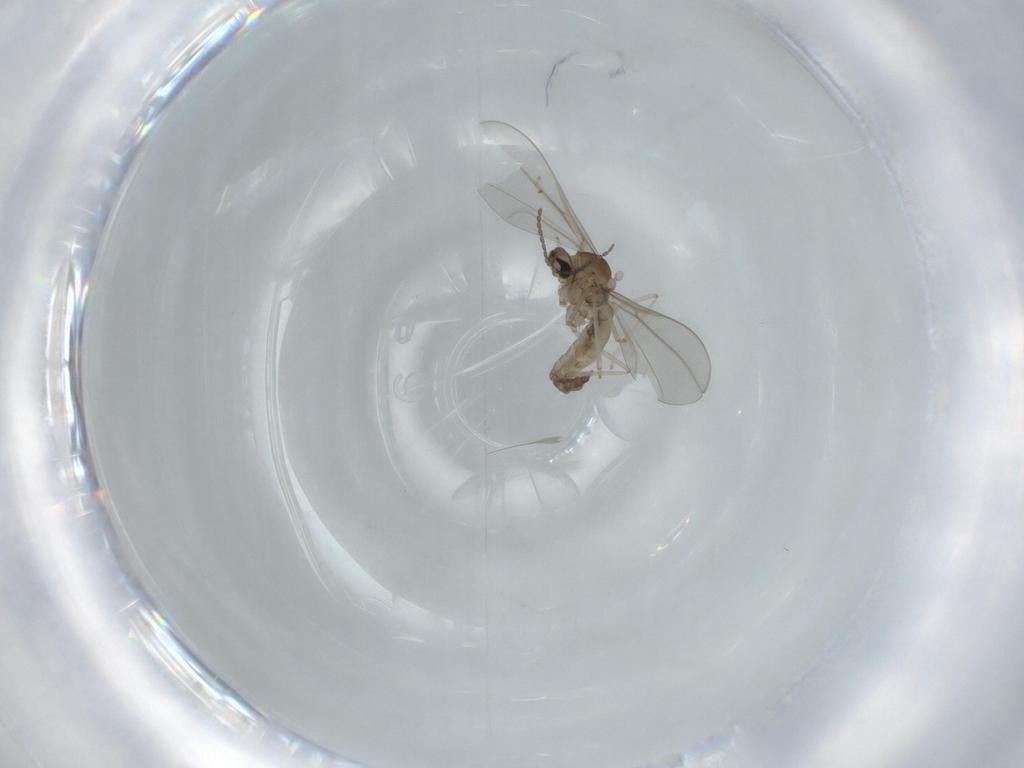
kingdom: Animalia
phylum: Arthropoda
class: Insecta
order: Diptera
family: Cecidomyiidae
